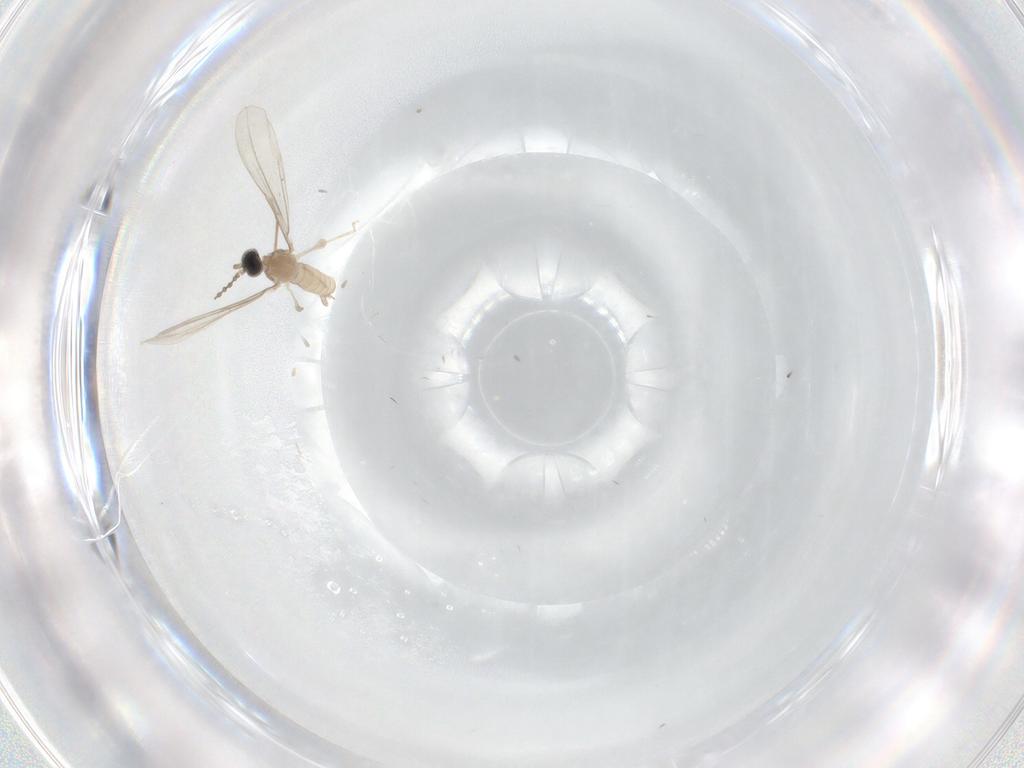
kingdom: Animalia
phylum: Arthropoda
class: Insecta
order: Diptera
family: Cecidomyiidae
